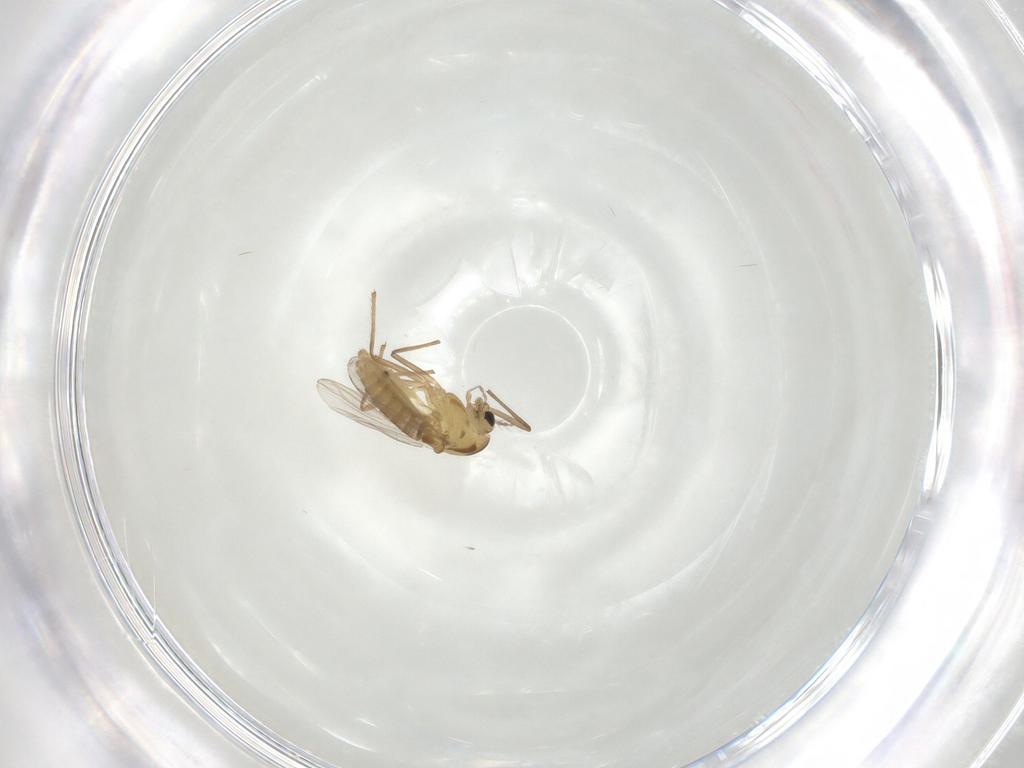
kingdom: Animalia
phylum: Arthropoda
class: Insecta
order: Diptera
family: Chironomidae
